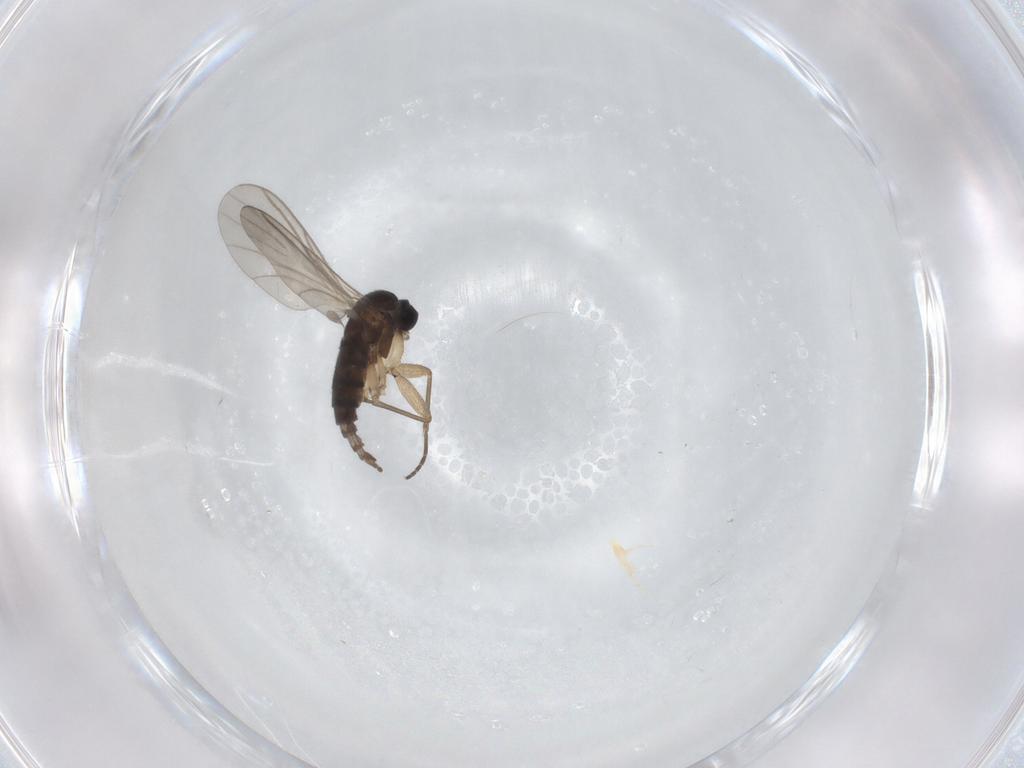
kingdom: Animalia
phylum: Arthropoda
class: Insecta
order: Diptera
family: Sciaridae
